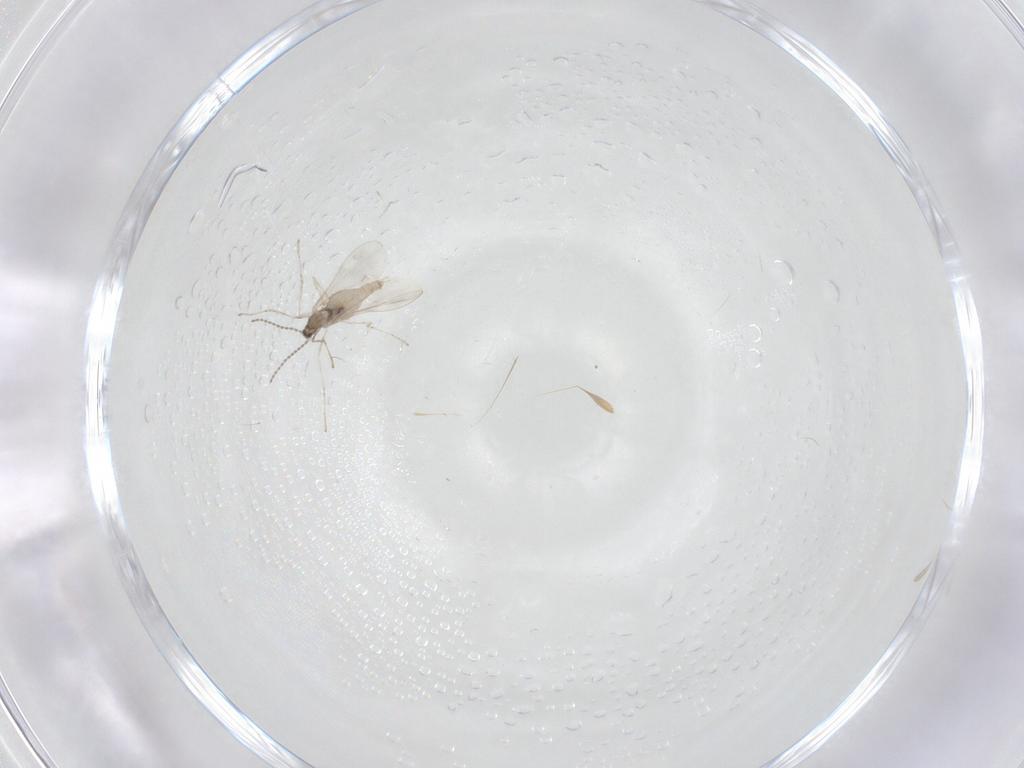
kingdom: Animalia
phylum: Arthropoda
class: Insecta
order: Diptera
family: Cecidomyiidae
